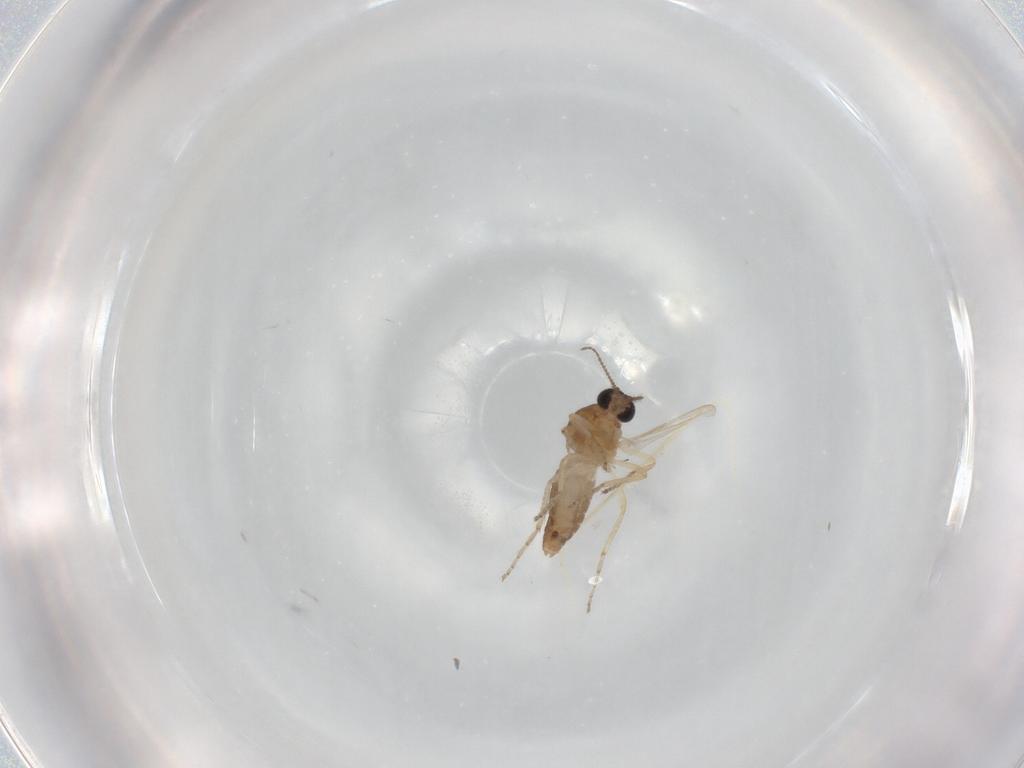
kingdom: Animalia
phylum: Arthropoda
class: Insecta
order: Diptera
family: Ceratopogonidae
